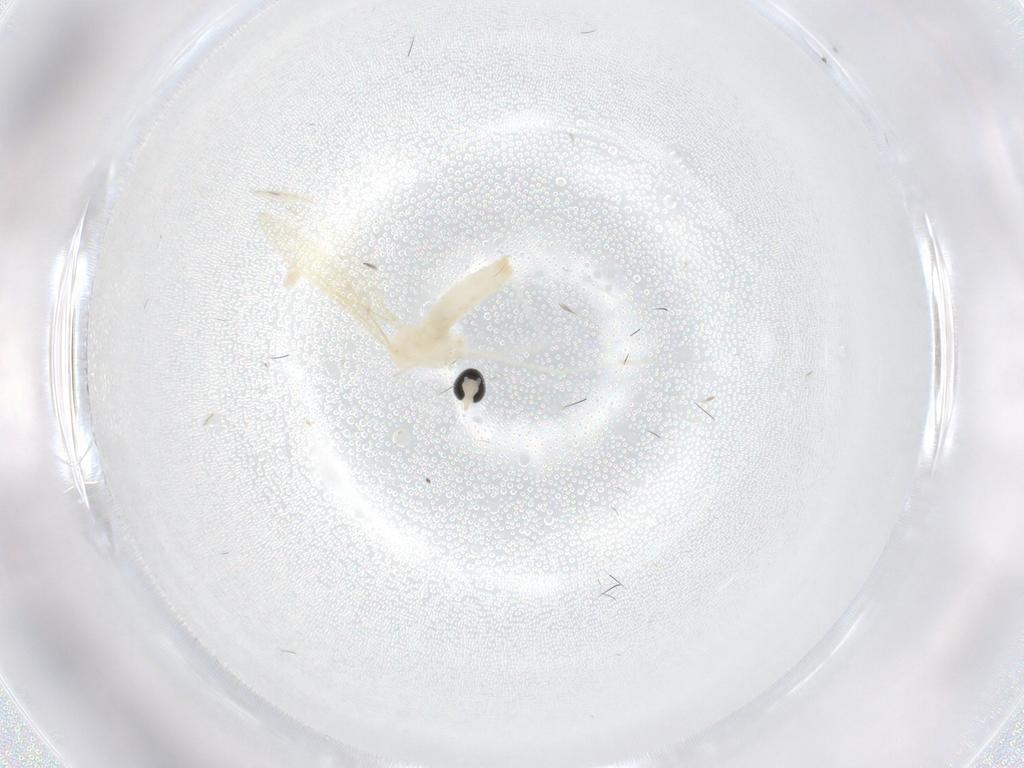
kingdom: Animalia
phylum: Arthropoda
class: Insecta
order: Diptera
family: Cecidomyiidae
